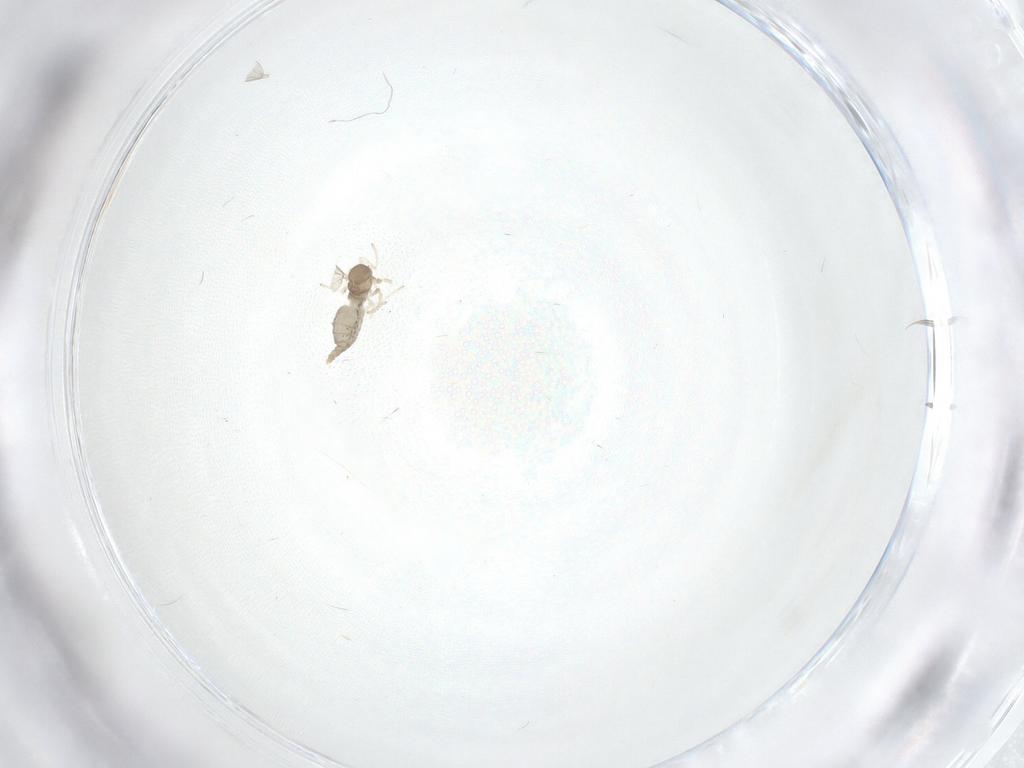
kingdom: Animalia
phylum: Arthropoda
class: Insecta
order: Diptera
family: Cecidomyiidae
